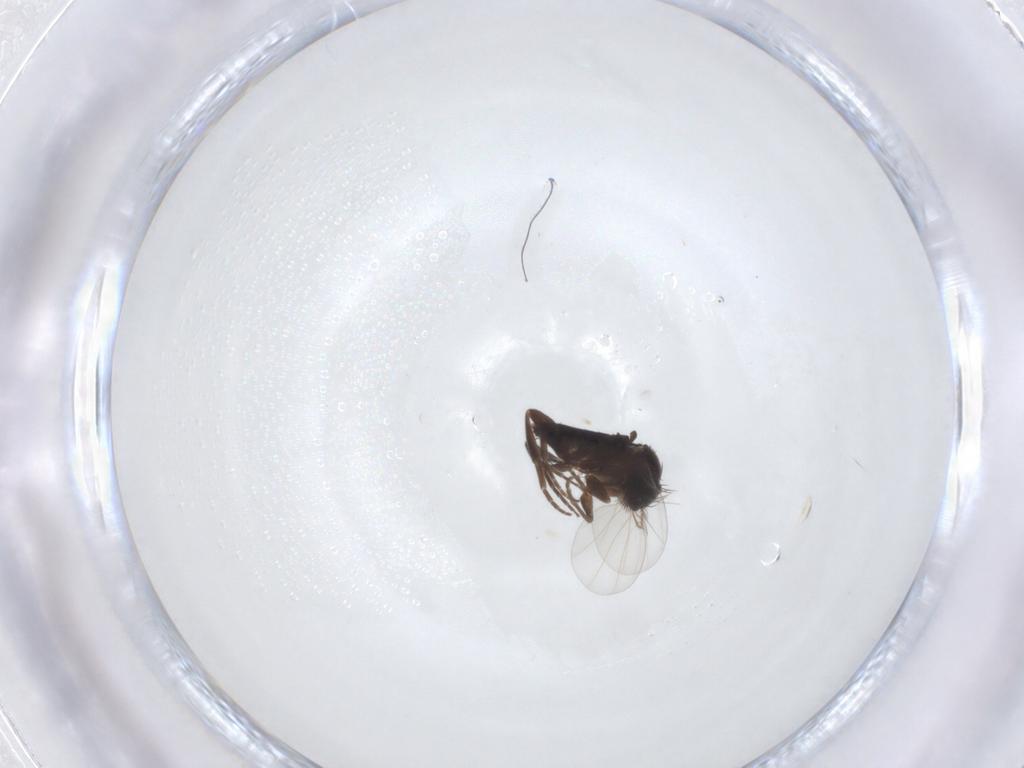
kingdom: Animalia
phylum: Arthropoda
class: Insecta
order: Diptera
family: Phoridae
